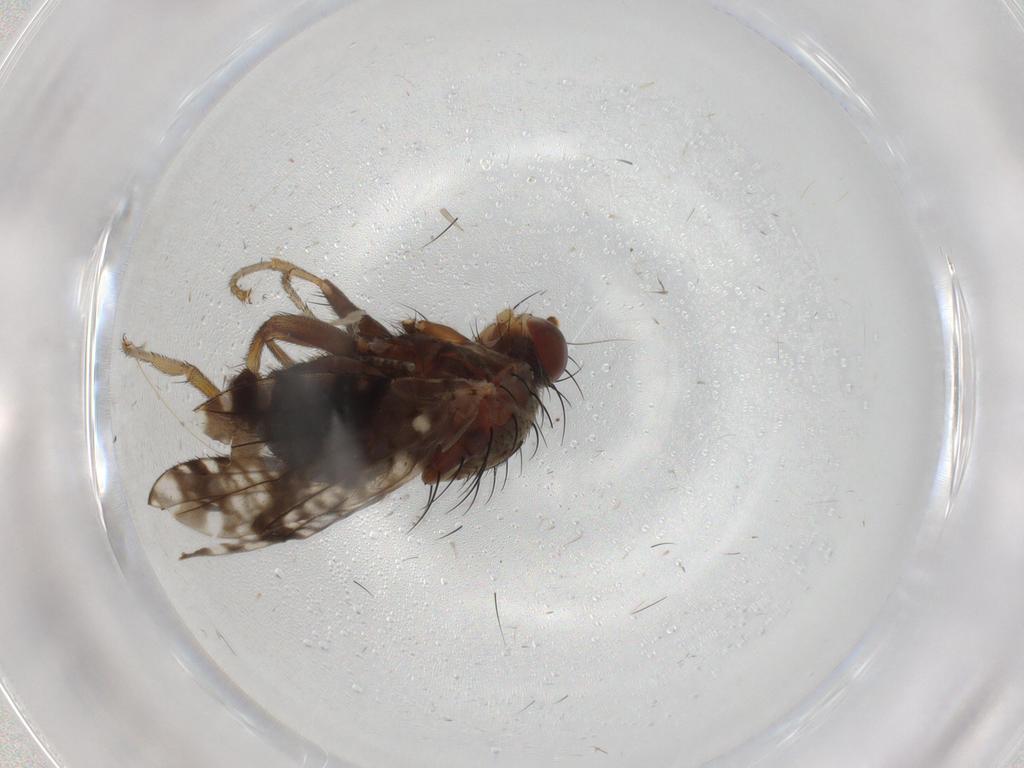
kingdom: Animalia
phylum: Arthropoda
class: Insecta
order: Diptera
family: Tephritidae
